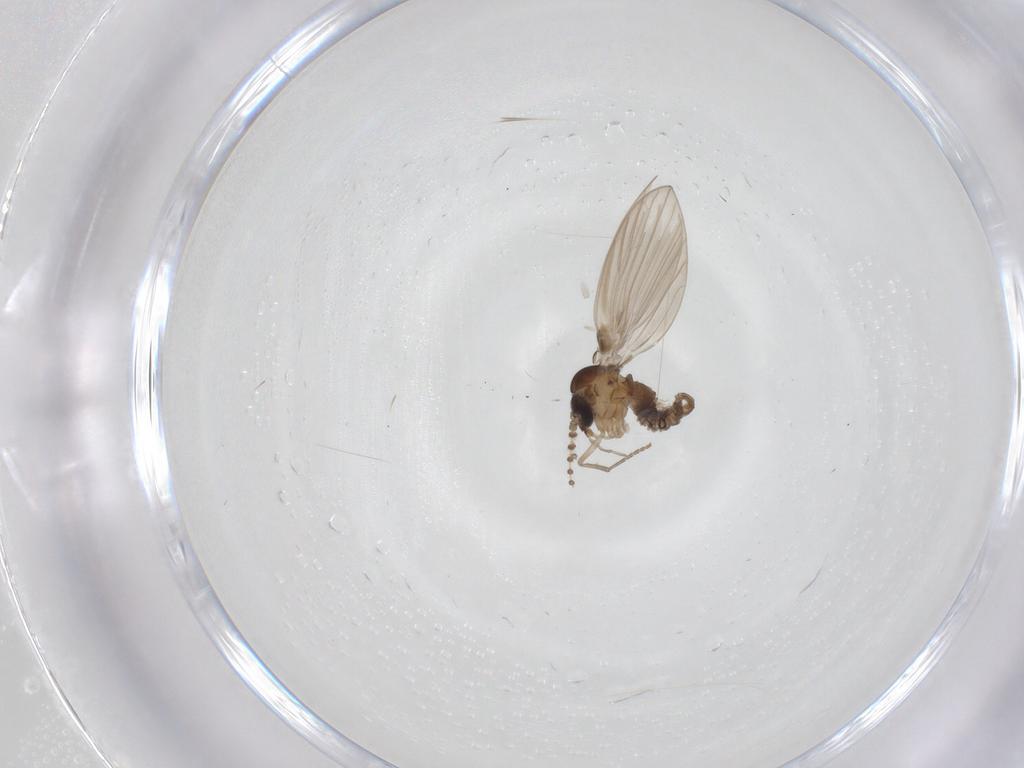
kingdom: Animalia
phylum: Arthropoda
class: Insecta
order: Diptera
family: Psychodidae
